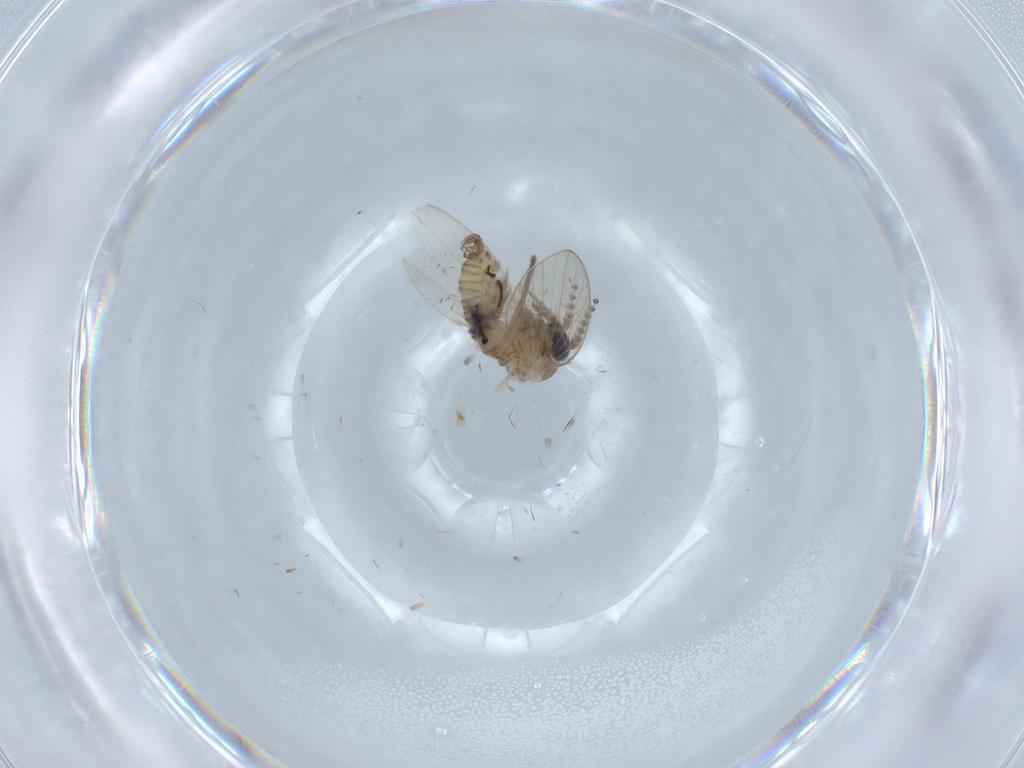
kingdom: Animalia
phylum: Arthropoda
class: Insecta
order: Diptera
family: Psychodidae
